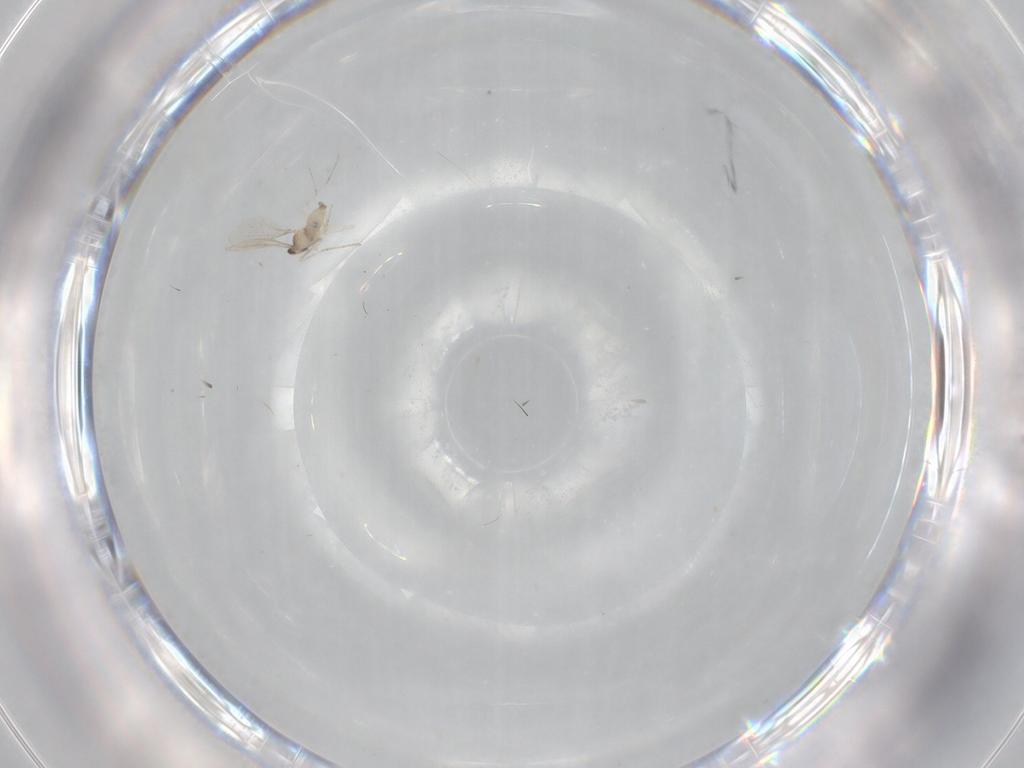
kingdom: Animalia
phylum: Arthropoda
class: Insecta
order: Diptera
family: Cecidomyiidae
